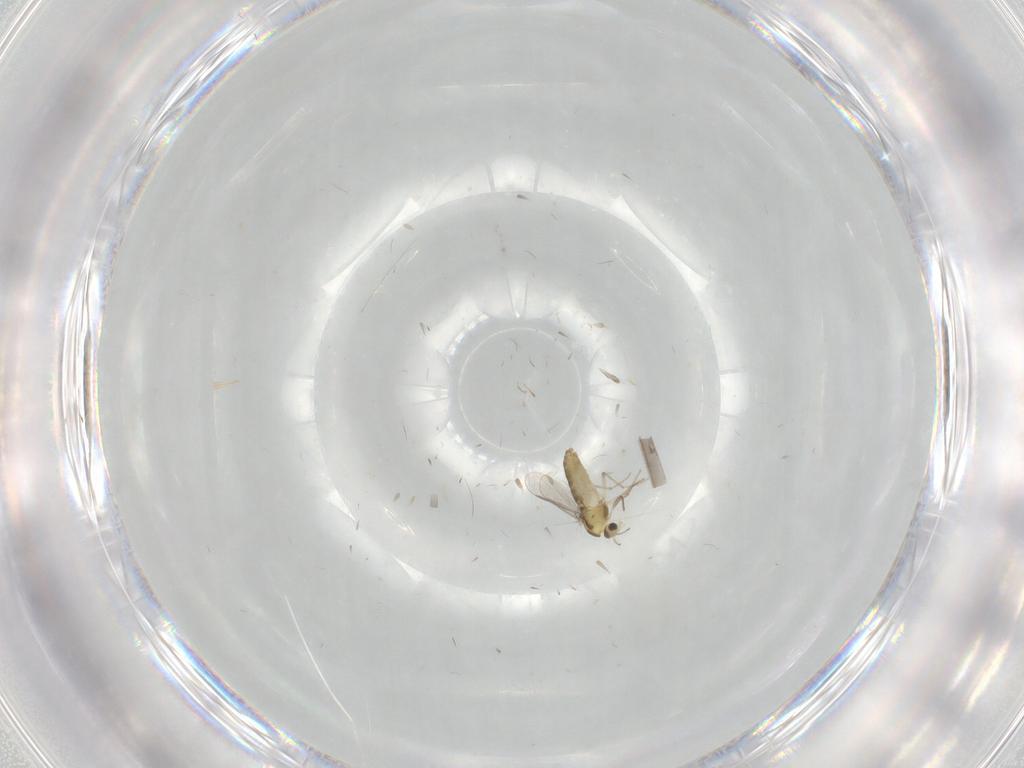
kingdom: Animalia
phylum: Arthropoda
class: Insecta
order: Diptera
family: Chironomidae
